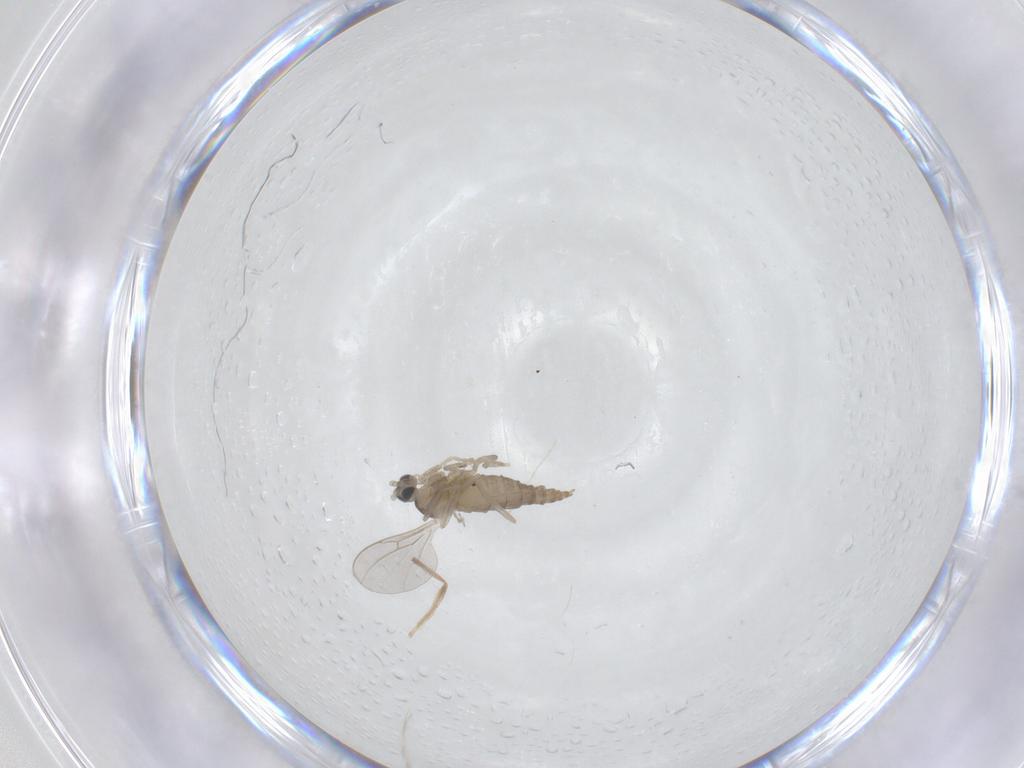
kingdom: Animalia
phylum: Arthropoda
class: Insecta
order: Diptera
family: Chironomidae
